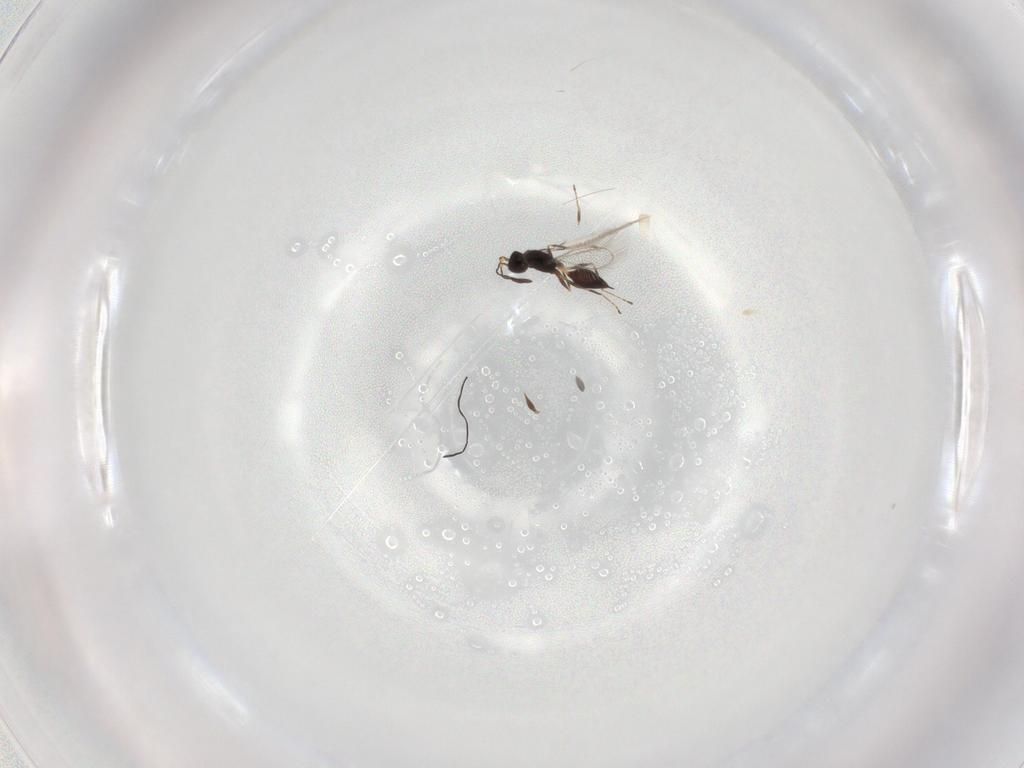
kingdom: Animalia
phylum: Arthropoda
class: Insecta
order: Hymenoptera
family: Mymaridae
